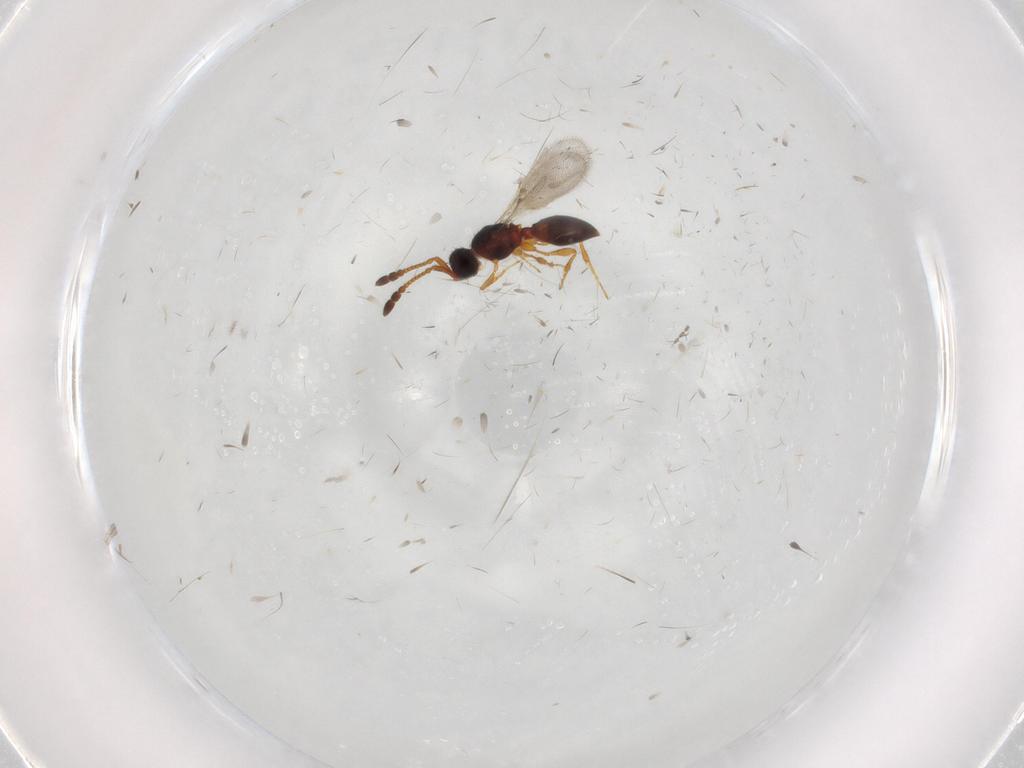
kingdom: Animalia
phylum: Arthropoda
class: Insecta
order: Hymenoptera
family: Diapriidae
